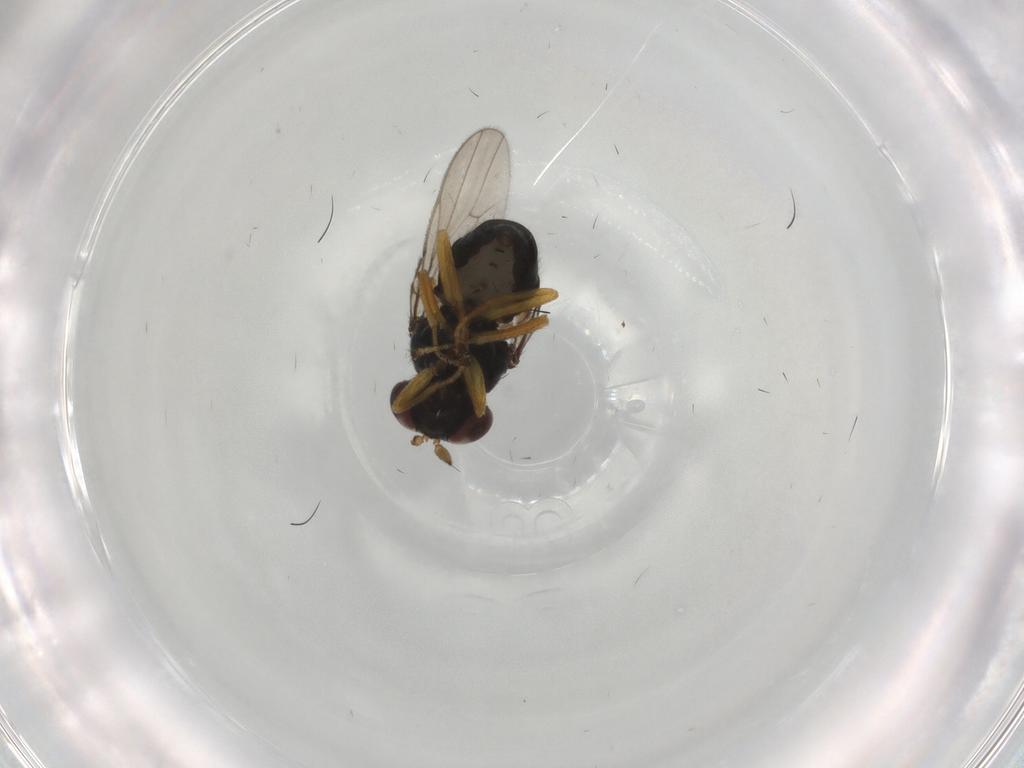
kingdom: Animalia
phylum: Arthropoda
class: Insecta
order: Diptera
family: Ephydridae
